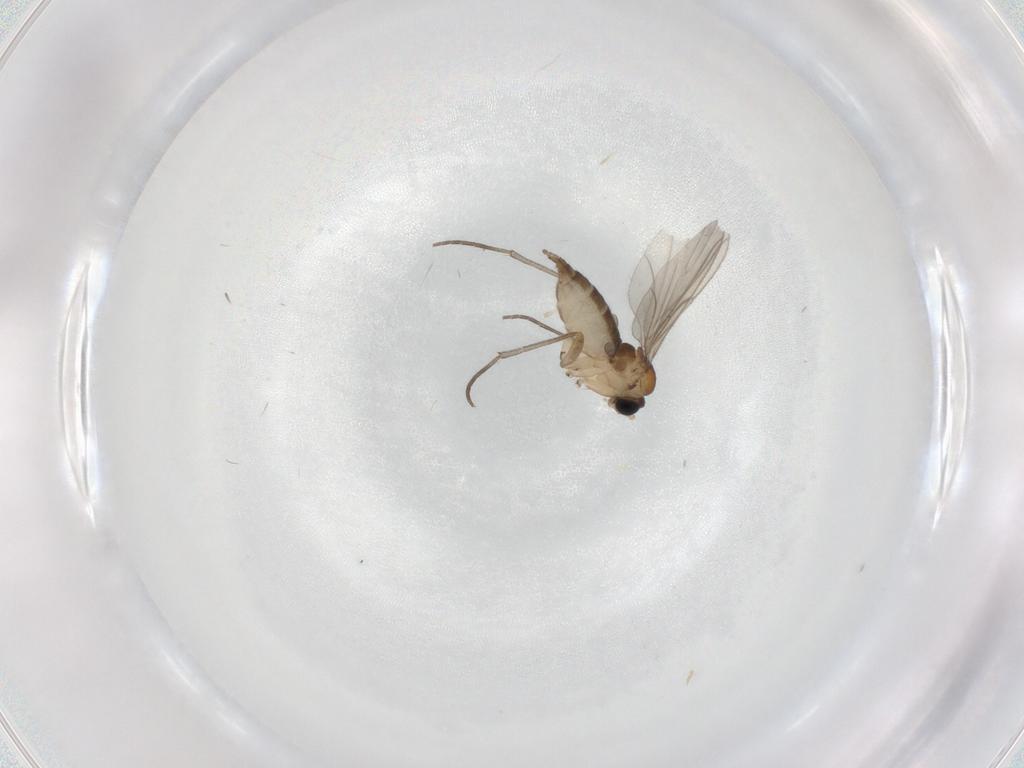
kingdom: Animalia
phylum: Arthropoda
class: Insecta
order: Diptera
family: Sciaridae
